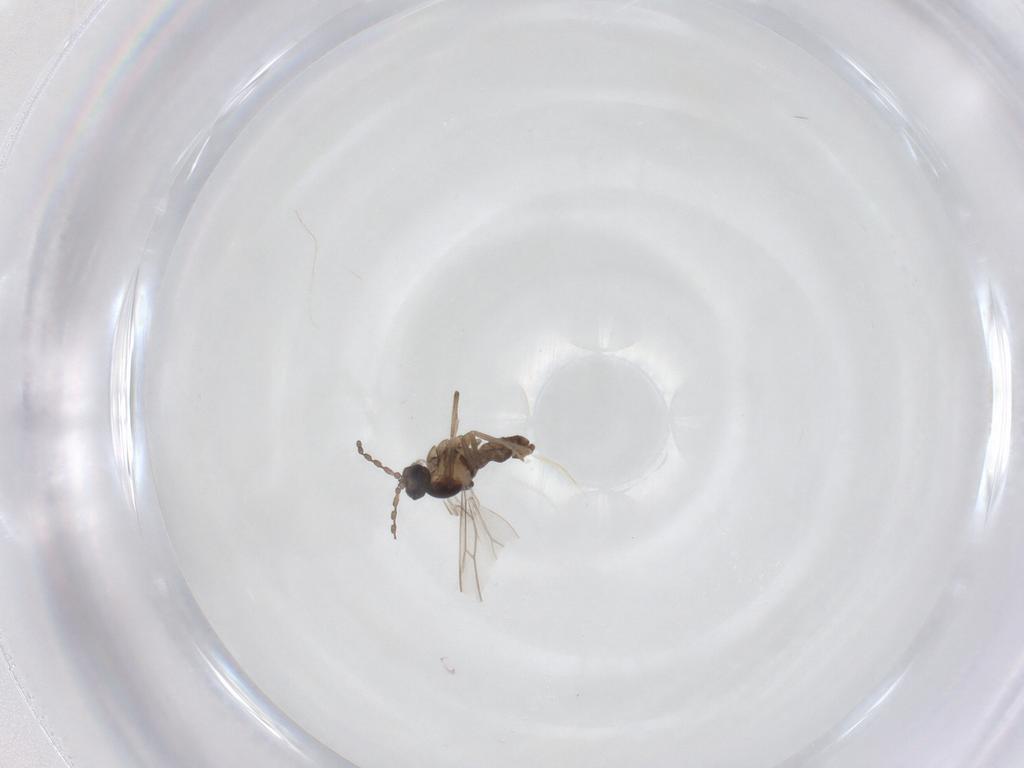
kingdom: Animalia
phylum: Arthropoda
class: Insecta
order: Diptera
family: Cecidomyiidae
